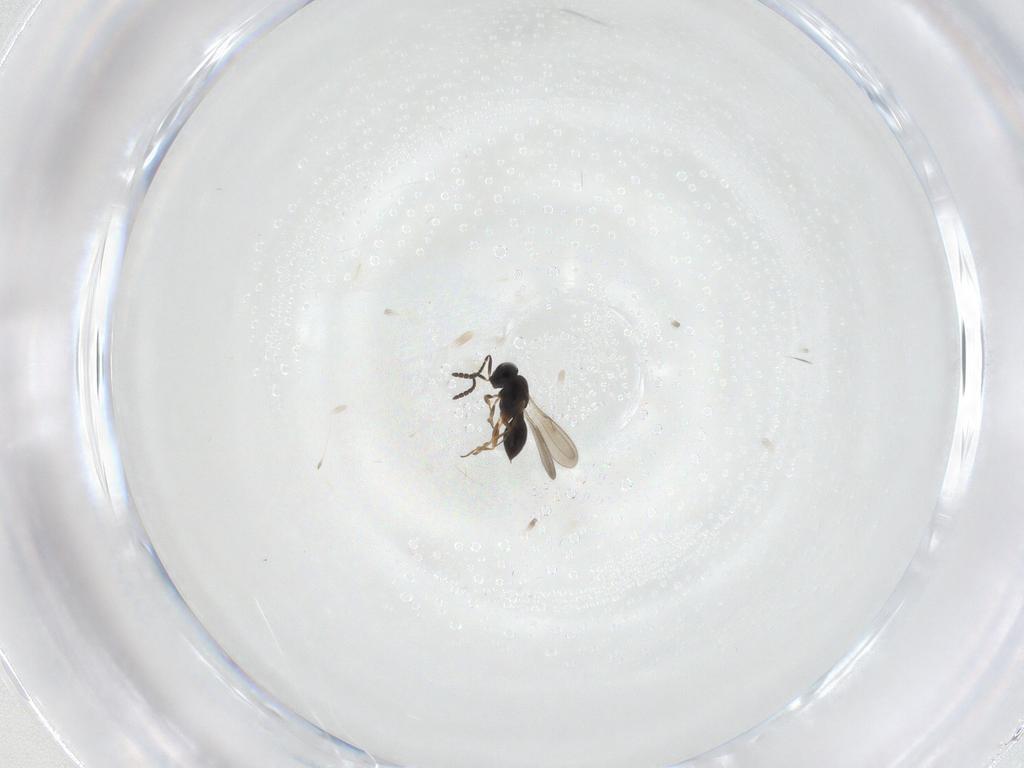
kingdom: Animalia
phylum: Arthropoda
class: Insecta
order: Hymenoptera
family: Scelionidae
